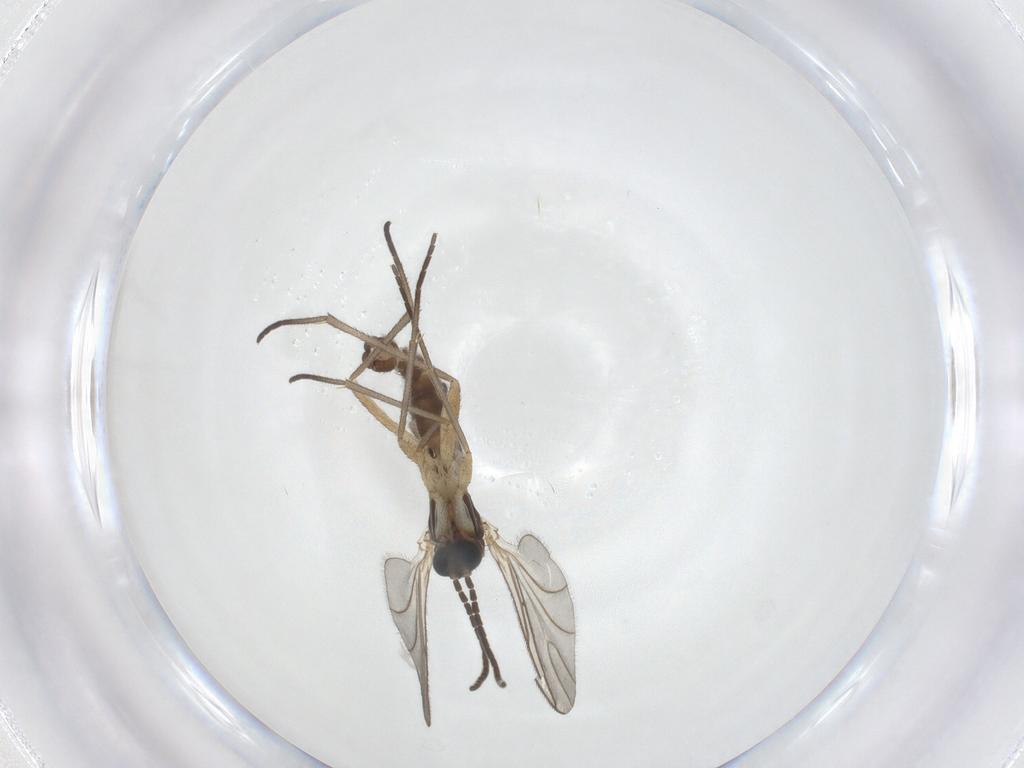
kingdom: Animalia
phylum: Arthropoda
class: Insecta
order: Diptera
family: Sciaridae
